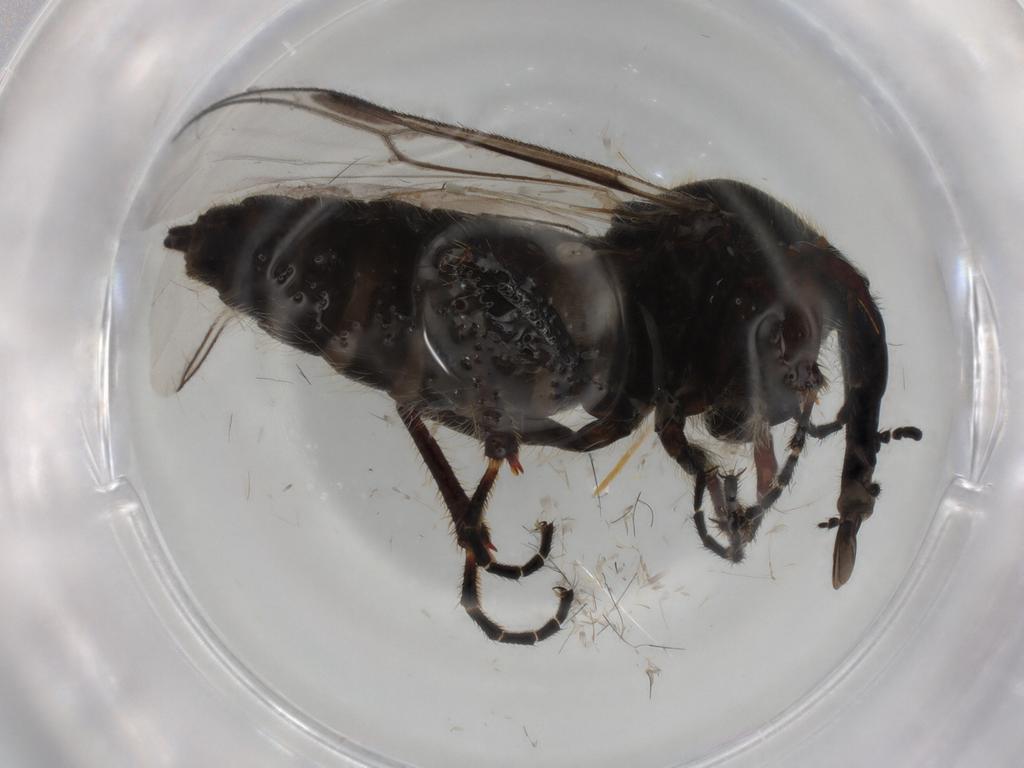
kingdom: Animalia
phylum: Arthropoda
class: Insecta
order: Diptera
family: Bibionidae
